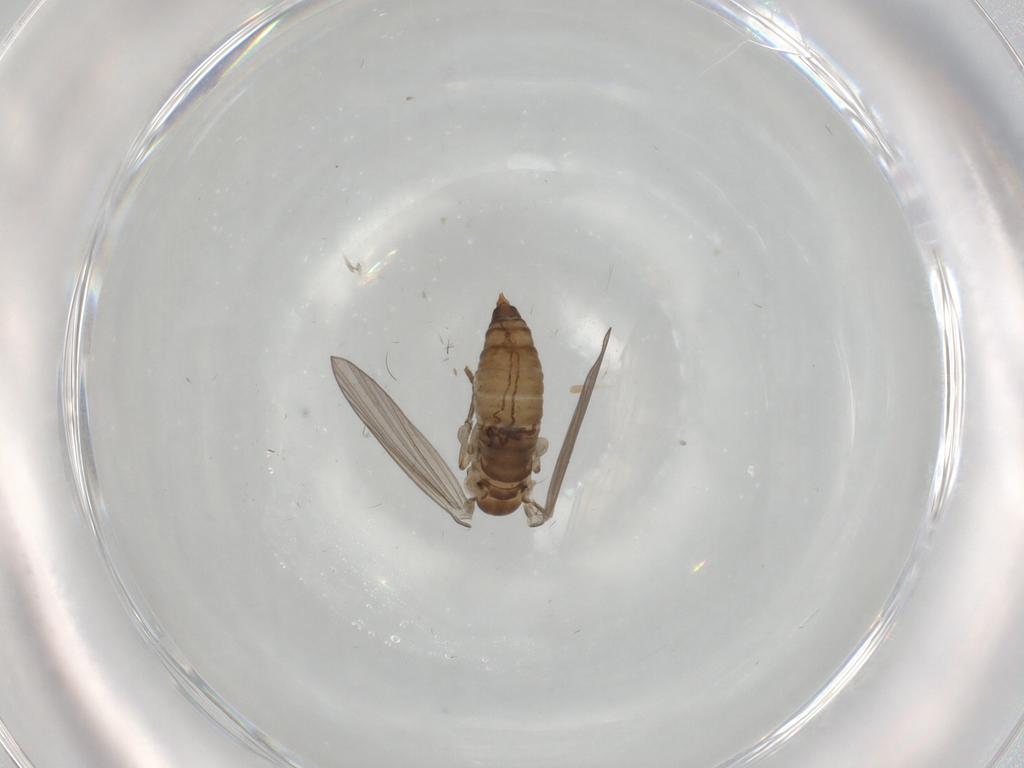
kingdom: Animalia
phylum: Arthropoda
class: Insecta
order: Diptera
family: Psychodidae
